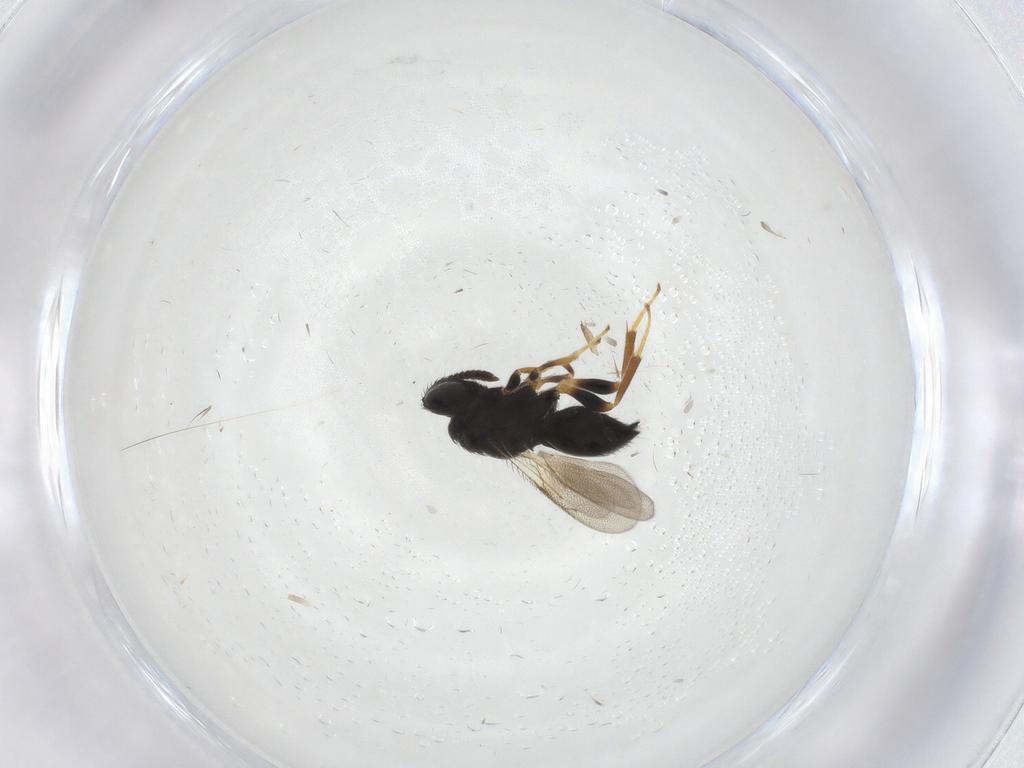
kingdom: Animalia
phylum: Arthropoda
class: Insecta
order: Hymenoptera
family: Pteromalidae
